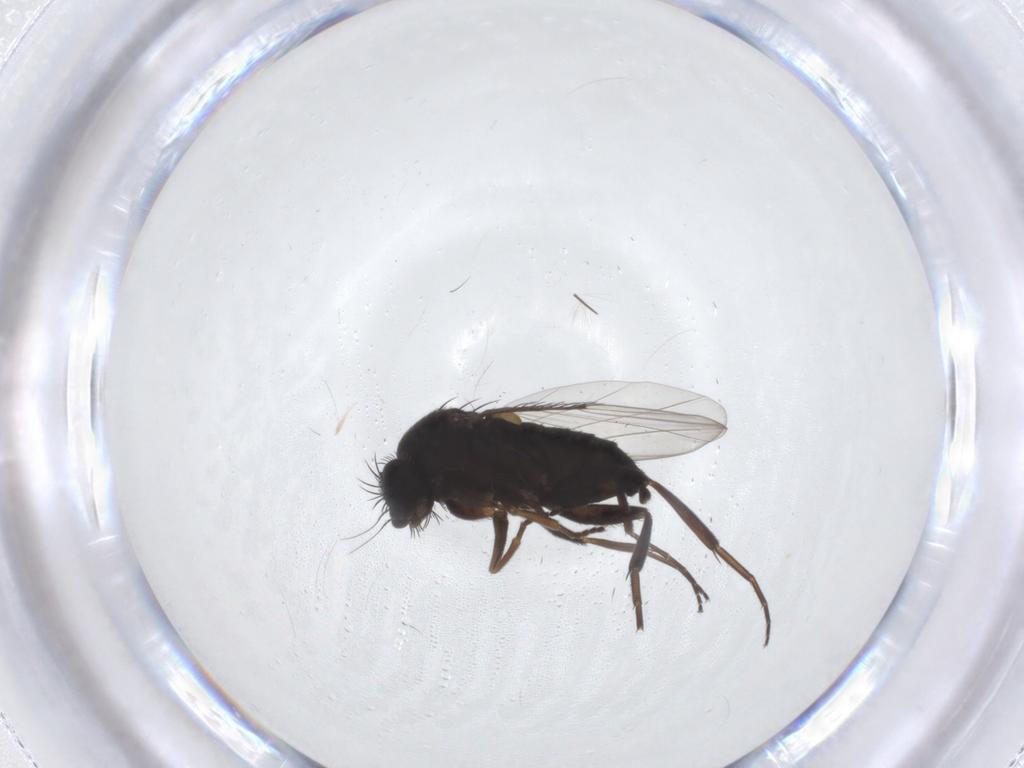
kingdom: Animalia
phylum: Arthropoda
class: Insecta
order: Diptera
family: Phoridae
